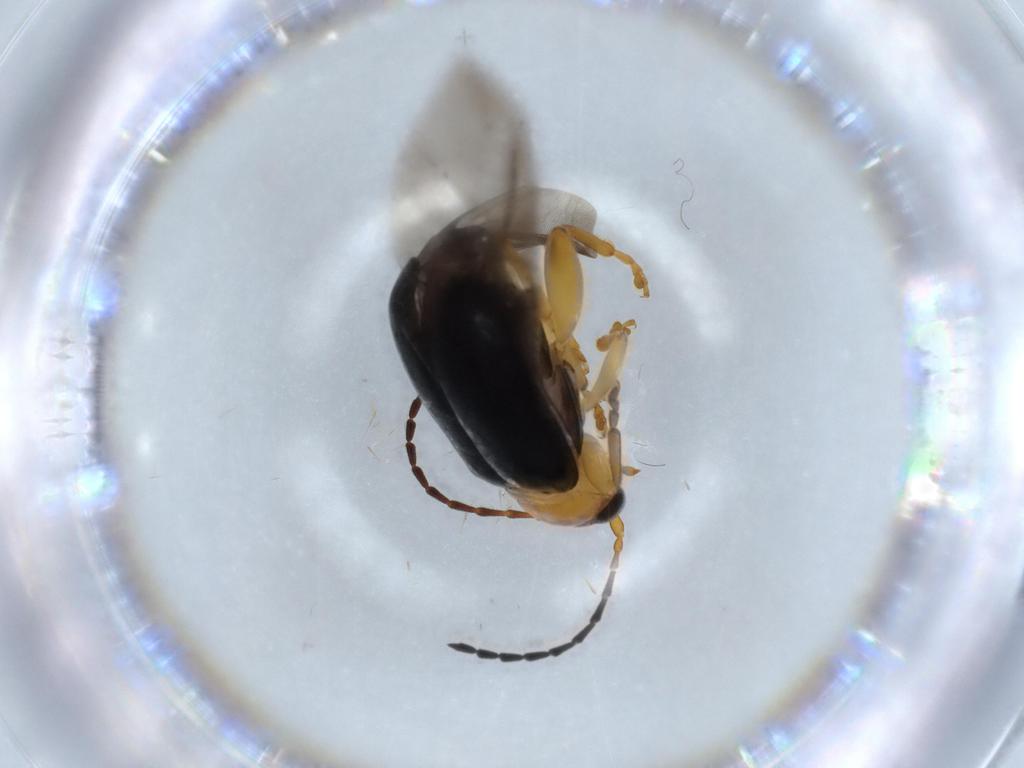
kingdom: Animalia
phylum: Arthropoda
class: Insecta
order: Coleoptera
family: Chrysomelidae
